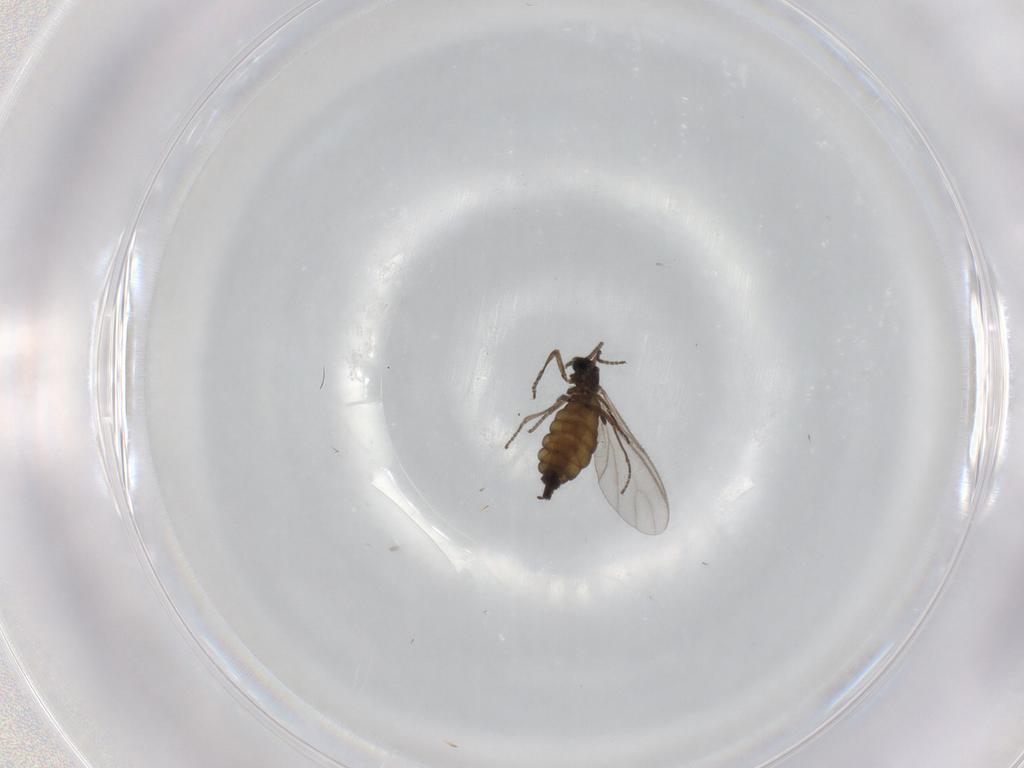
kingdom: Animalia
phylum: Arthropoda
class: Insecta
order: Diptera
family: Sciaridae
